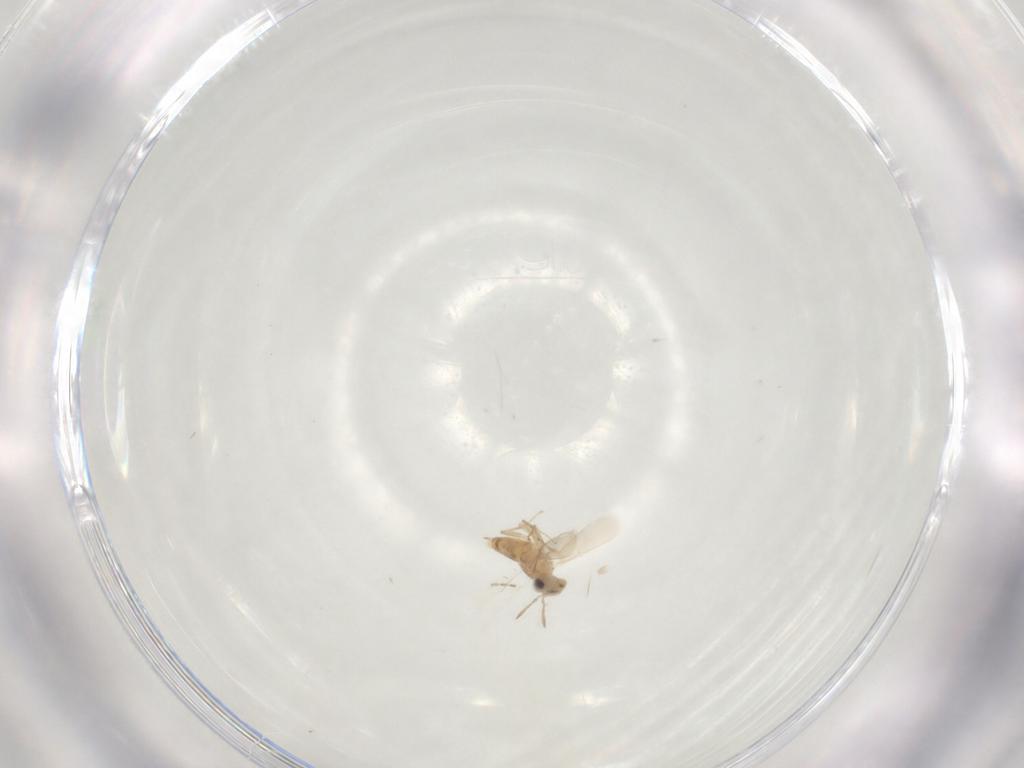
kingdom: Animalia
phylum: Arthropoda
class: Insecta
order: Hymenoptera
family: Aphelinidae
